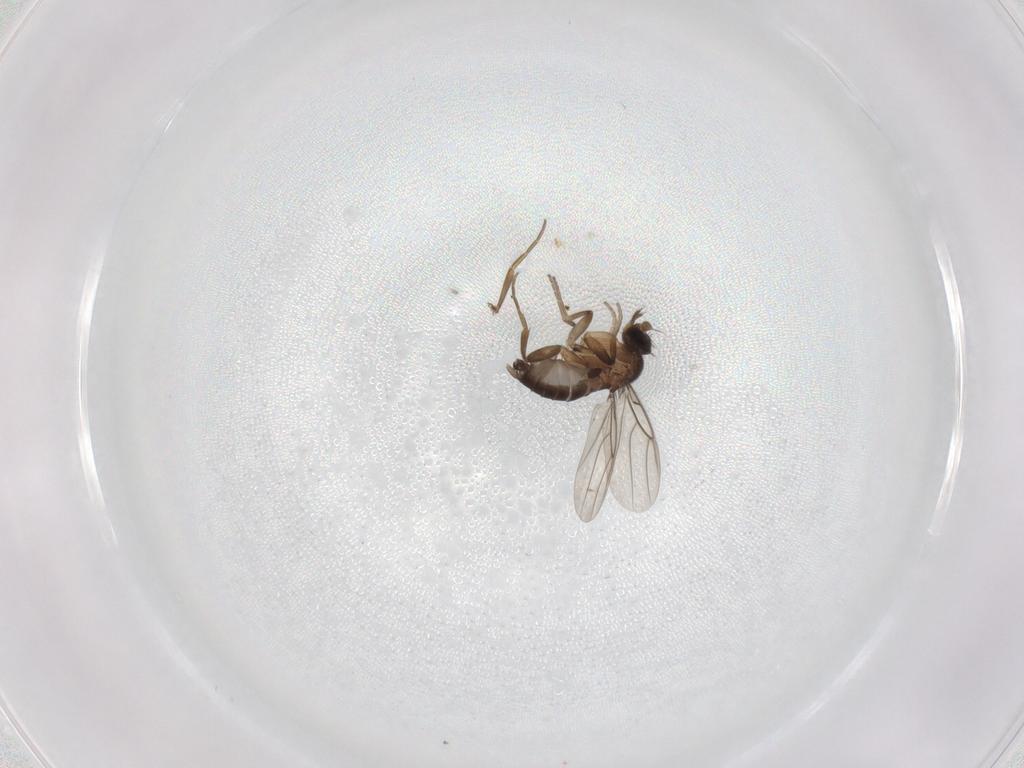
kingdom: Animalia
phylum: Arthropoda
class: Insecta
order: Diptera
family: Phoridae
